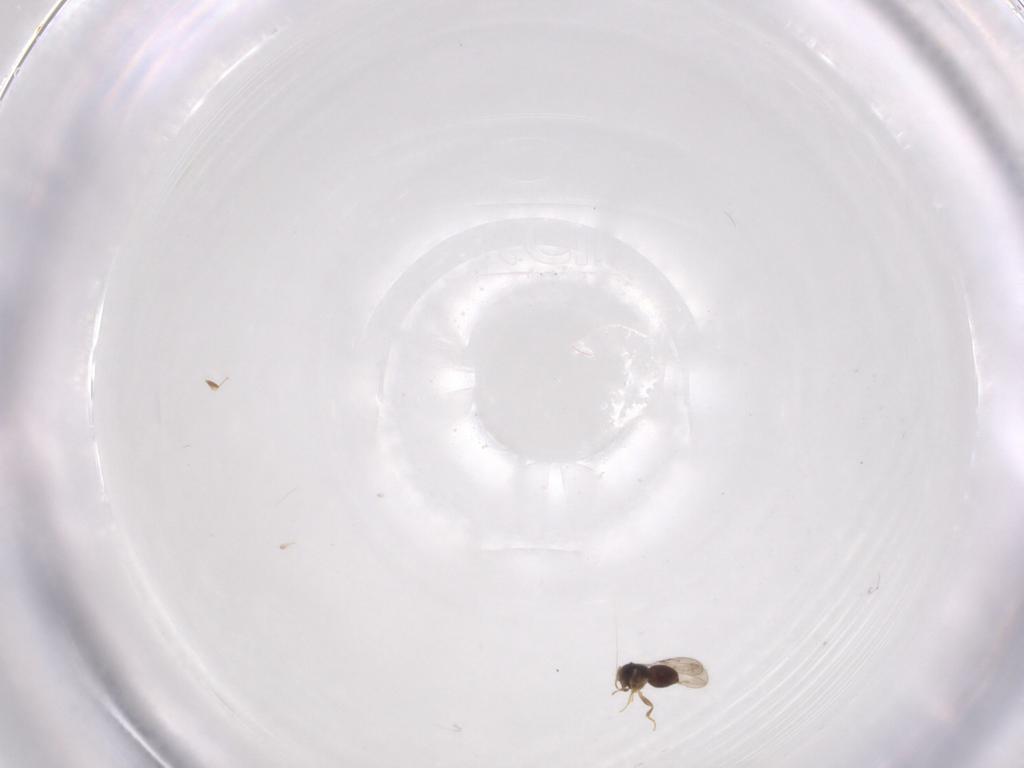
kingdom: Animalia
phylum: Arthropoda
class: Insecta
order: Hymenoptera
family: Ceraphronidae
